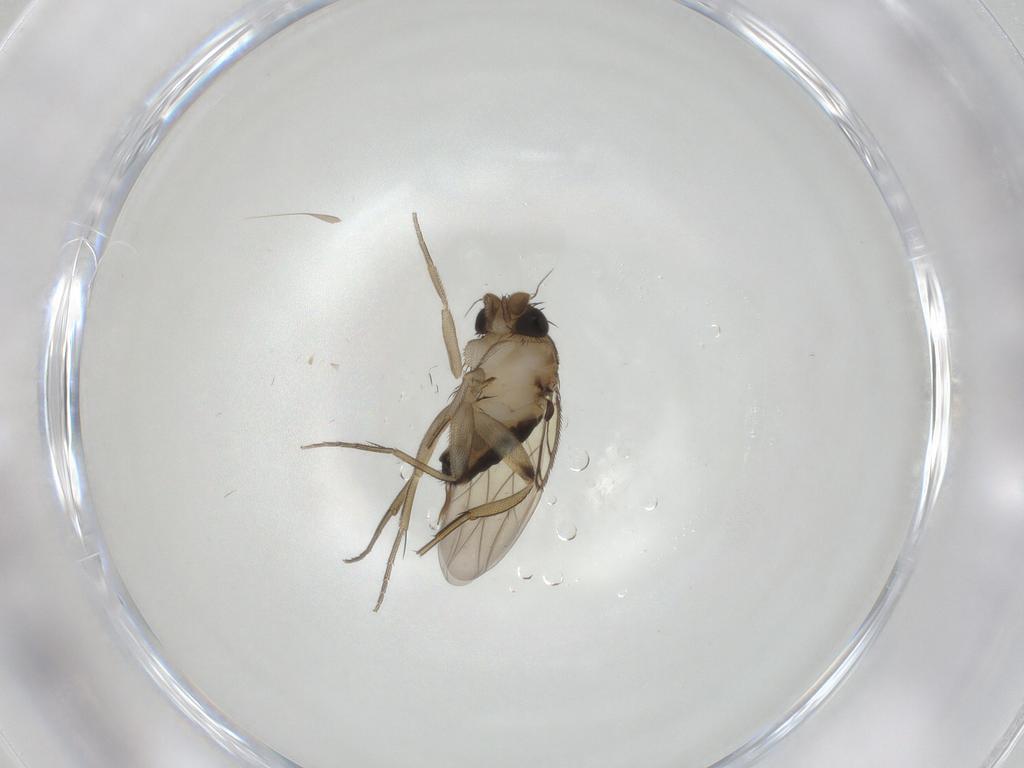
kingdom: Animalia
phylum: Arthropoda
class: Insecta
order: Diptera
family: Phoridae
